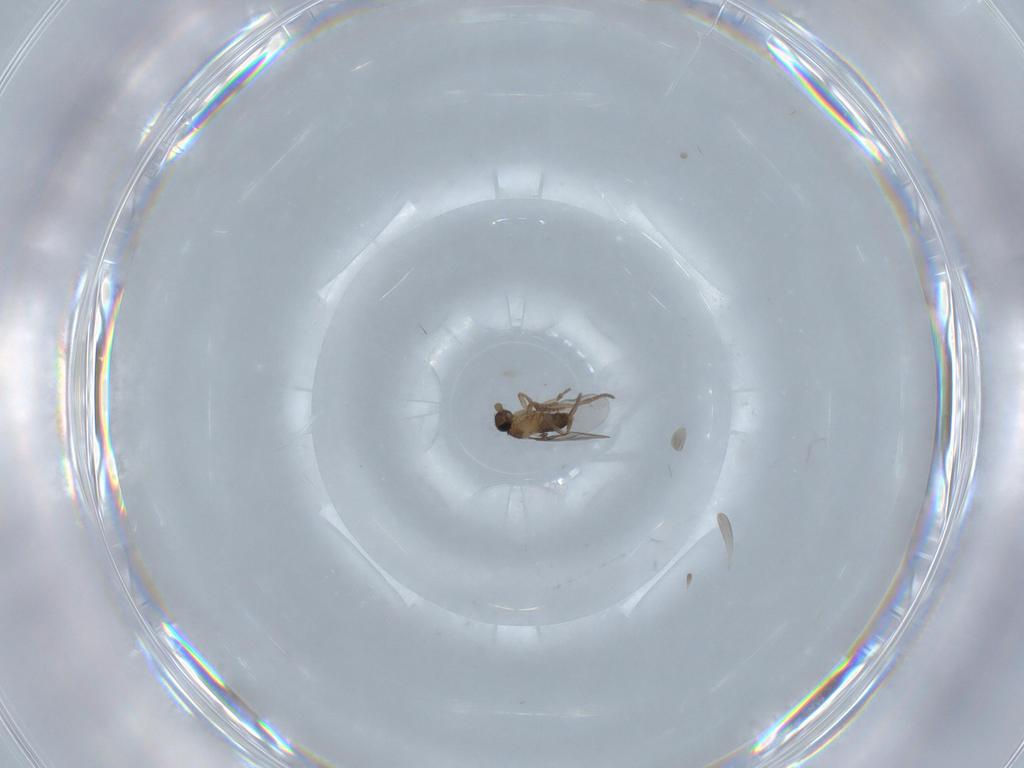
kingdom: Animalia
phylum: Arthropoda
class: Insecta
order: Diptera
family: Phoridae
